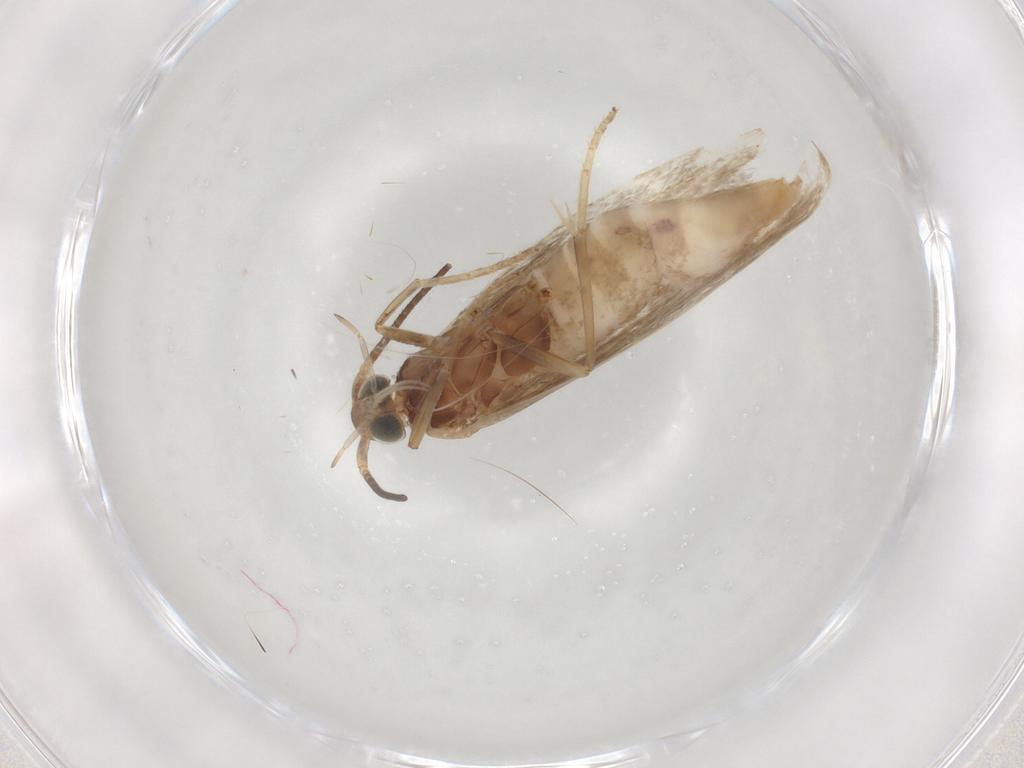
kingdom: Animalia
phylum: Arthropoda
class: Insecta
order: Lepidoptera
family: Coleophoridae
